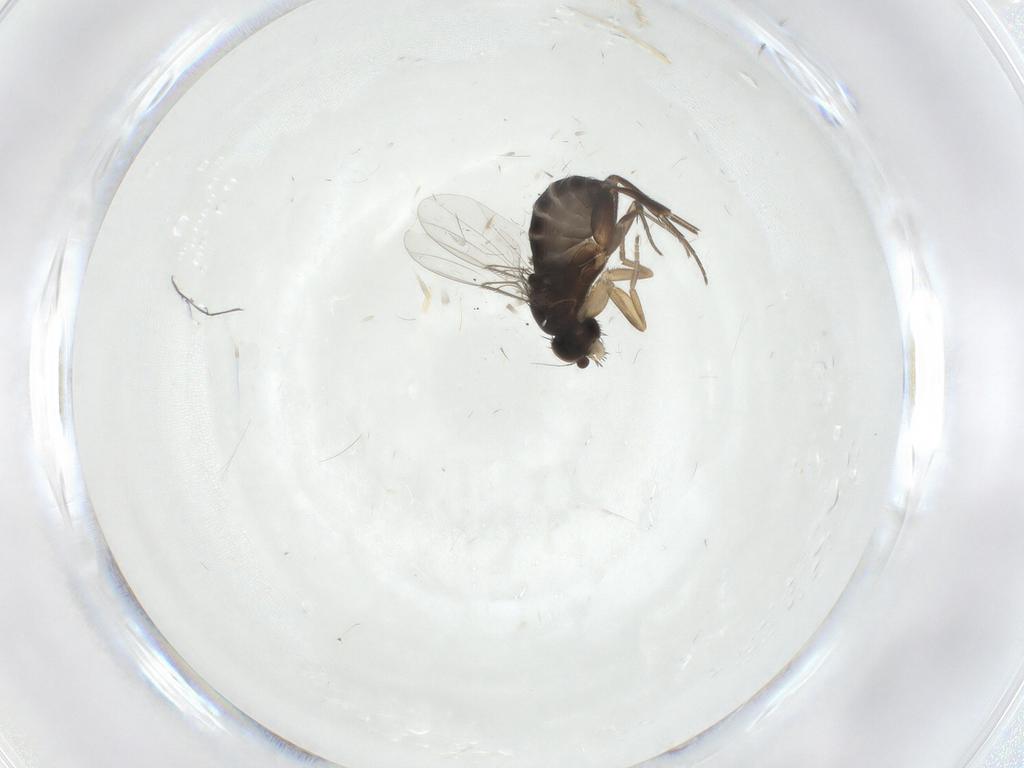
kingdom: Animalia
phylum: Arthropoda
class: Insecta
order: Diptera
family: Phoridae
